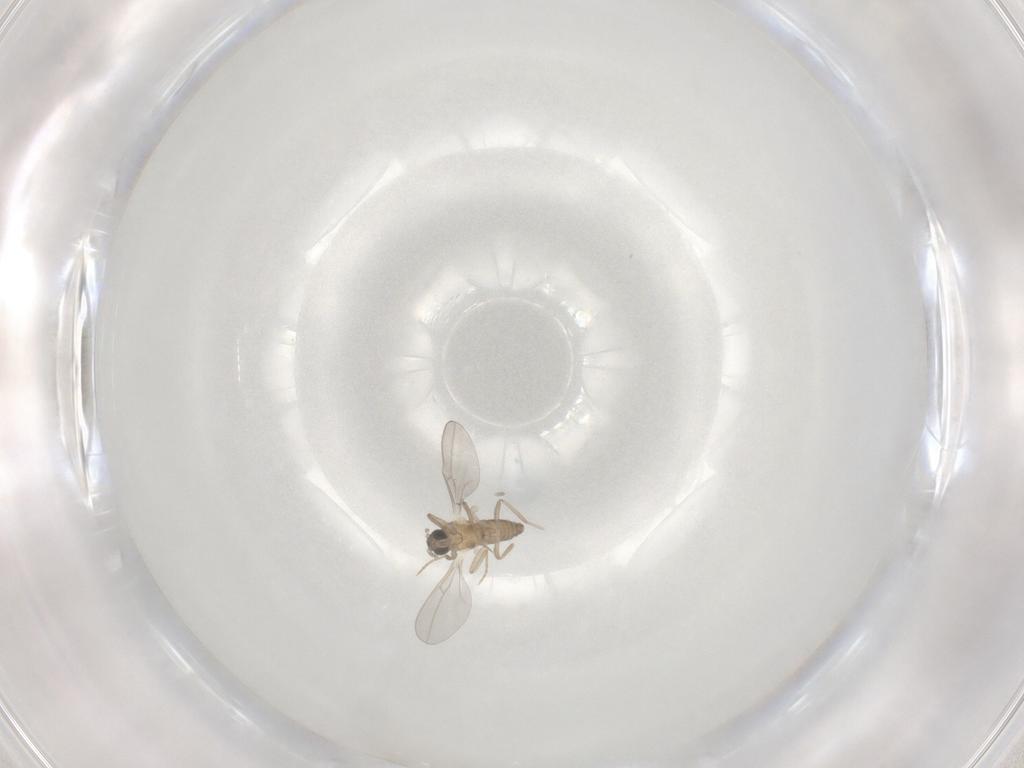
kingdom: Animalia
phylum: Arthropoda
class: Insecta
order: Diptera
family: Cecidomyiidae
